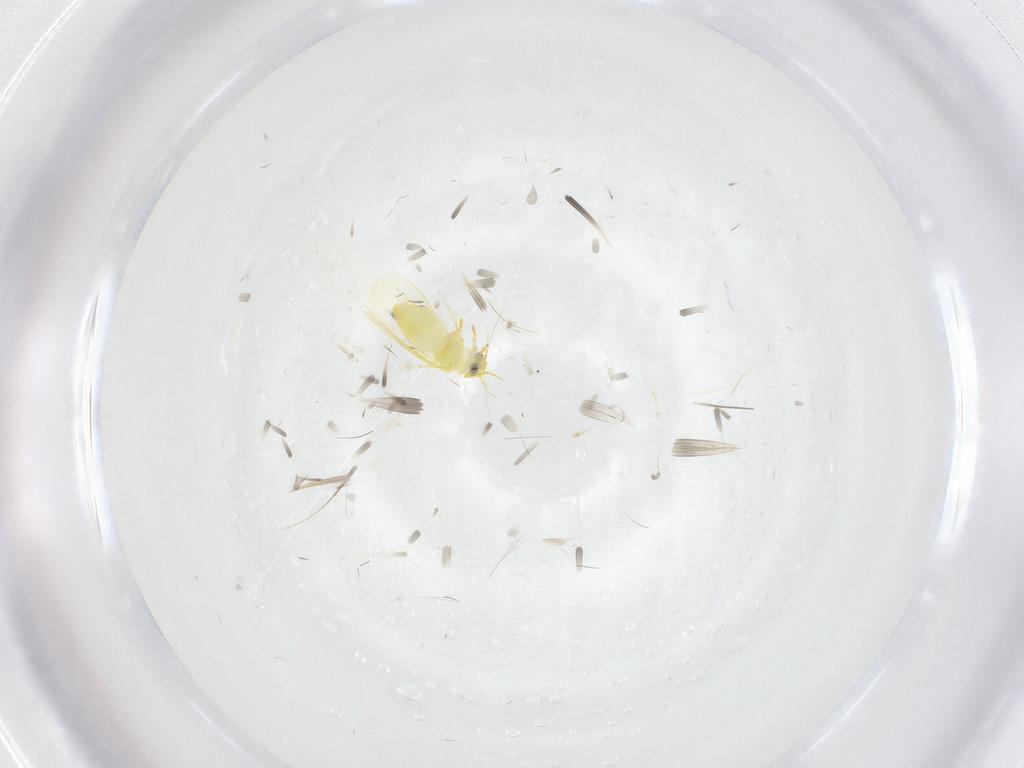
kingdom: Animalia
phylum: Arthropoda
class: Insecta
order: Hemiptera
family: Aleyrodidae
